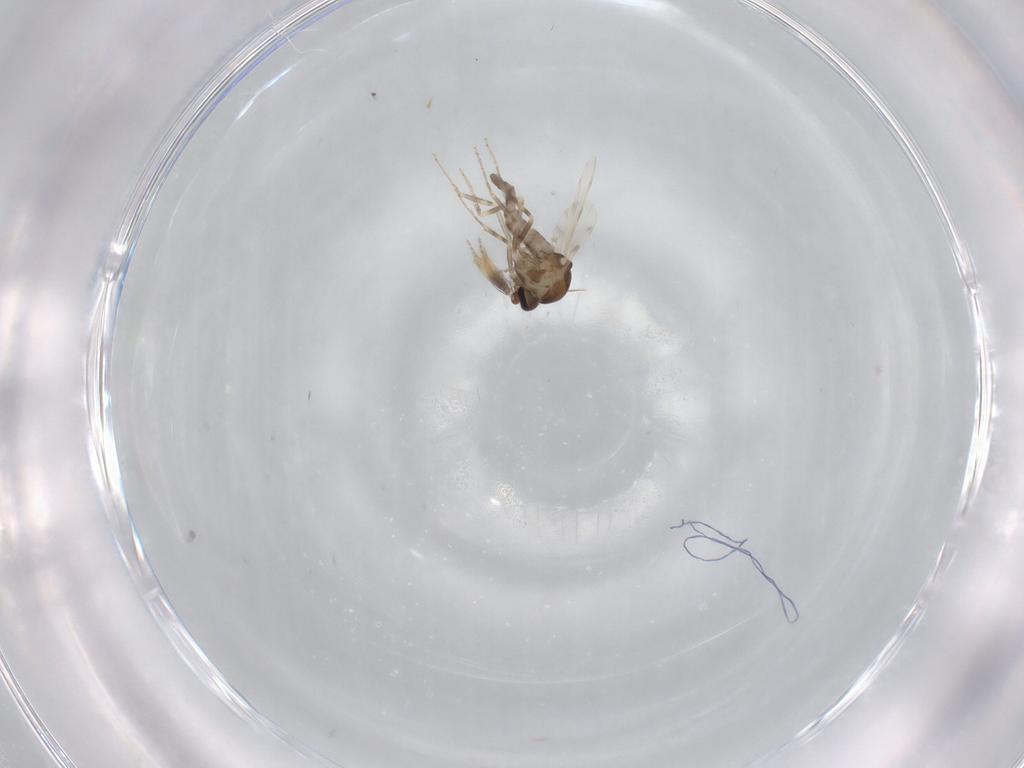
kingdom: Animalia
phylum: Arthropoda
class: Insecta
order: Diptera
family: Ceratopogonidae
